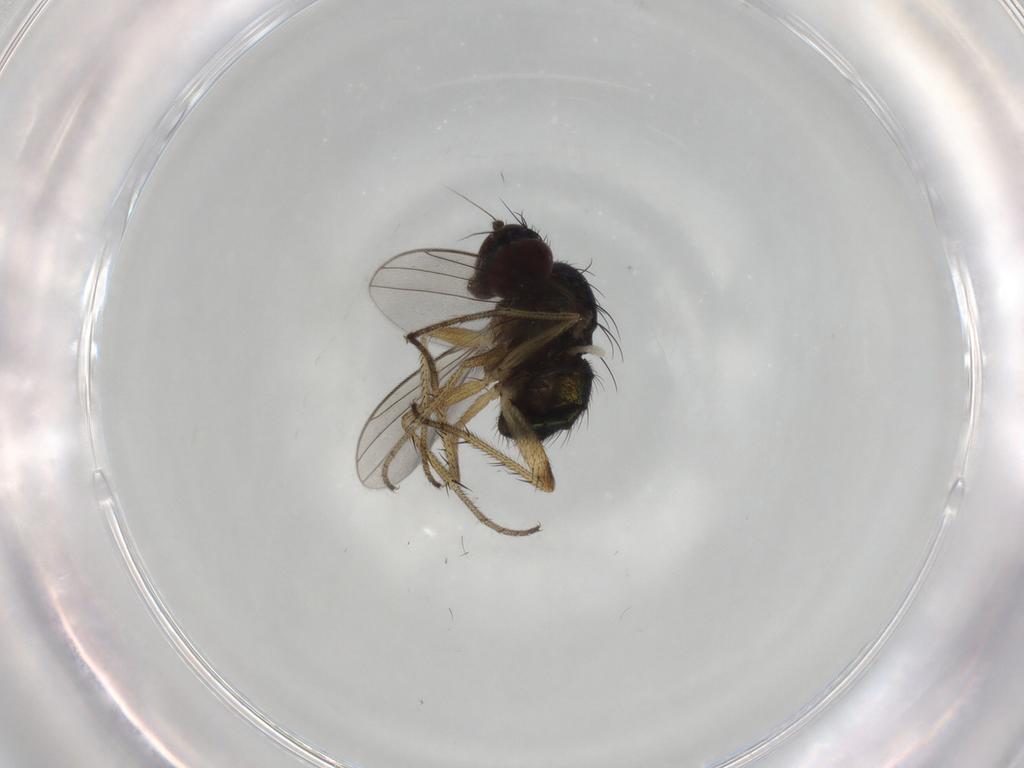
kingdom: Animalia
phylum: Arthropoda
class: Insecta
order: Diptera
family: Dolichopodidae
